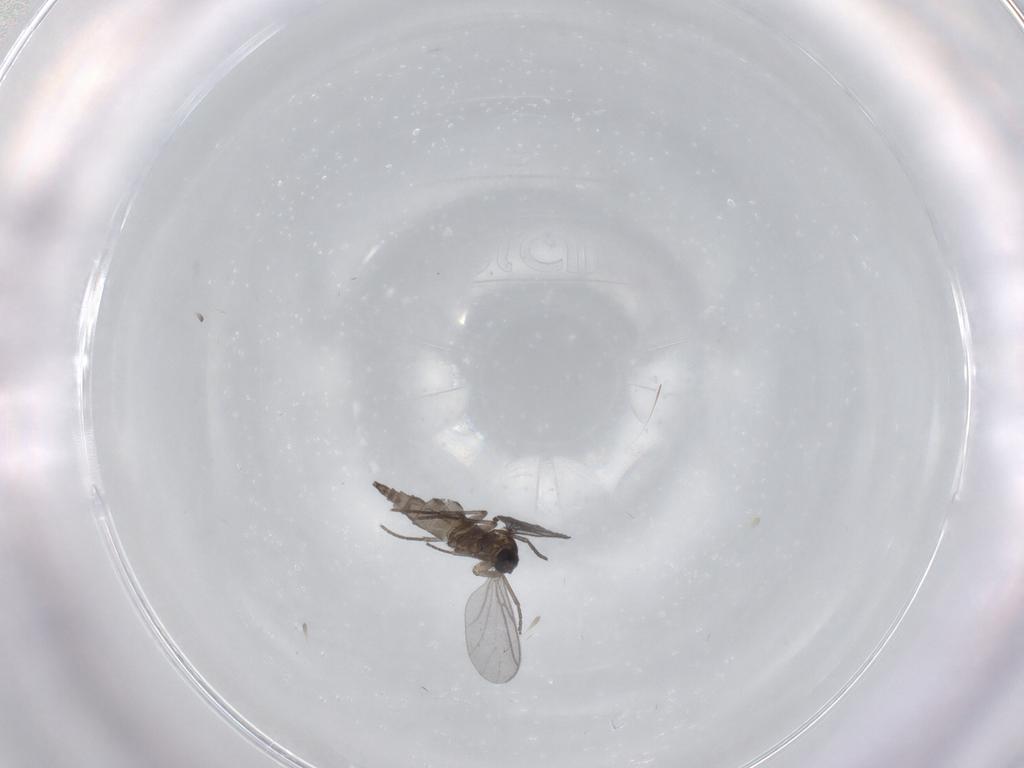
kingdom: Animalia
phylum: Arthropoda
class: Insecta
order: Diptera
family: Sciaridae
